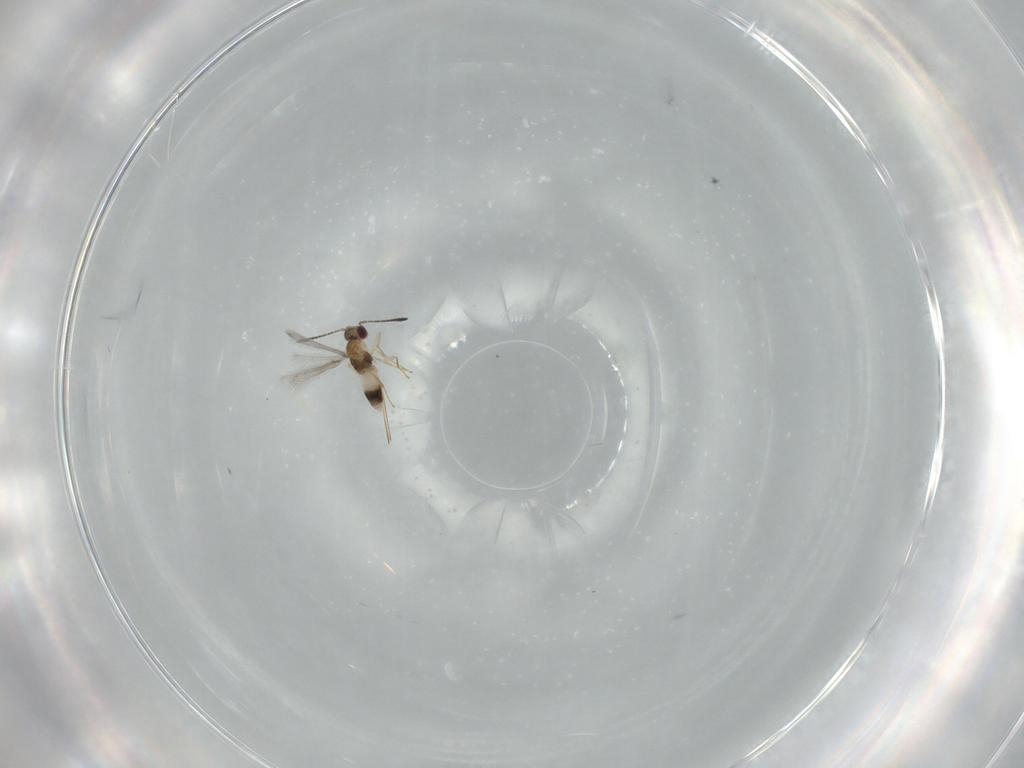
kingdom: Animalia
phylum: Arthropoda
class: Insecta
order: Hymenoptera
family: Mymaridae
